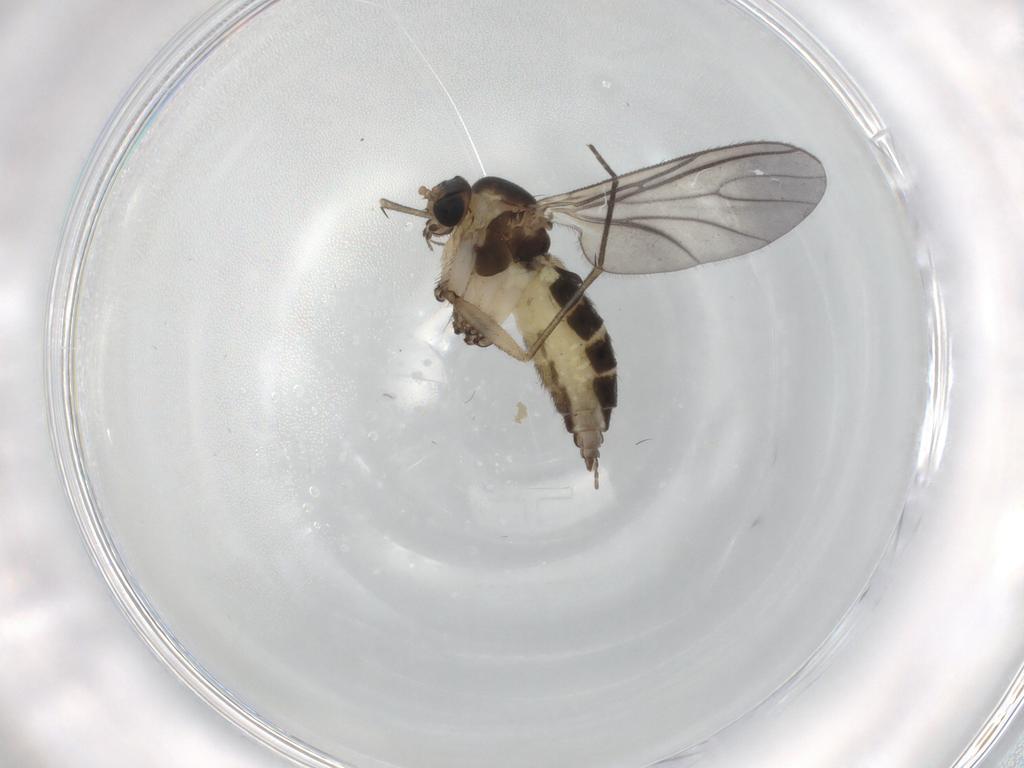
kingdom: Animalia
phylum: Arthropoda
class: Insecta
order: Diptera
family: Sciaridae
